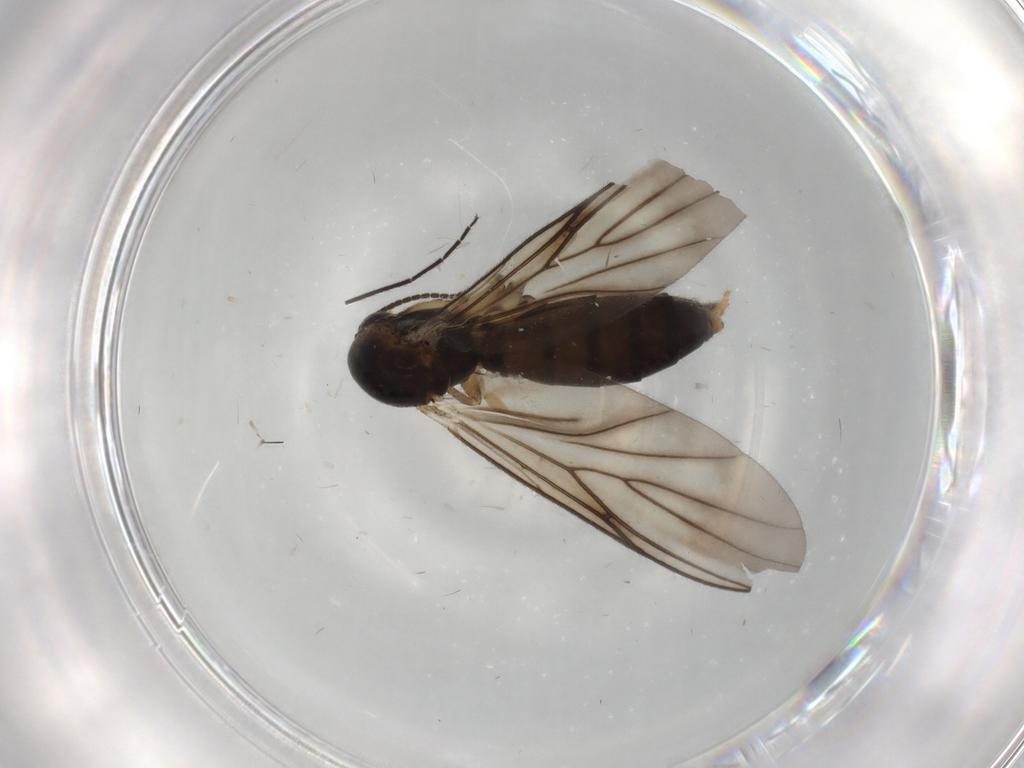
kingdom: Animalia
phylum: Arthropoda
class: Insecta
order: Diptera
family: Mycetophilidae
